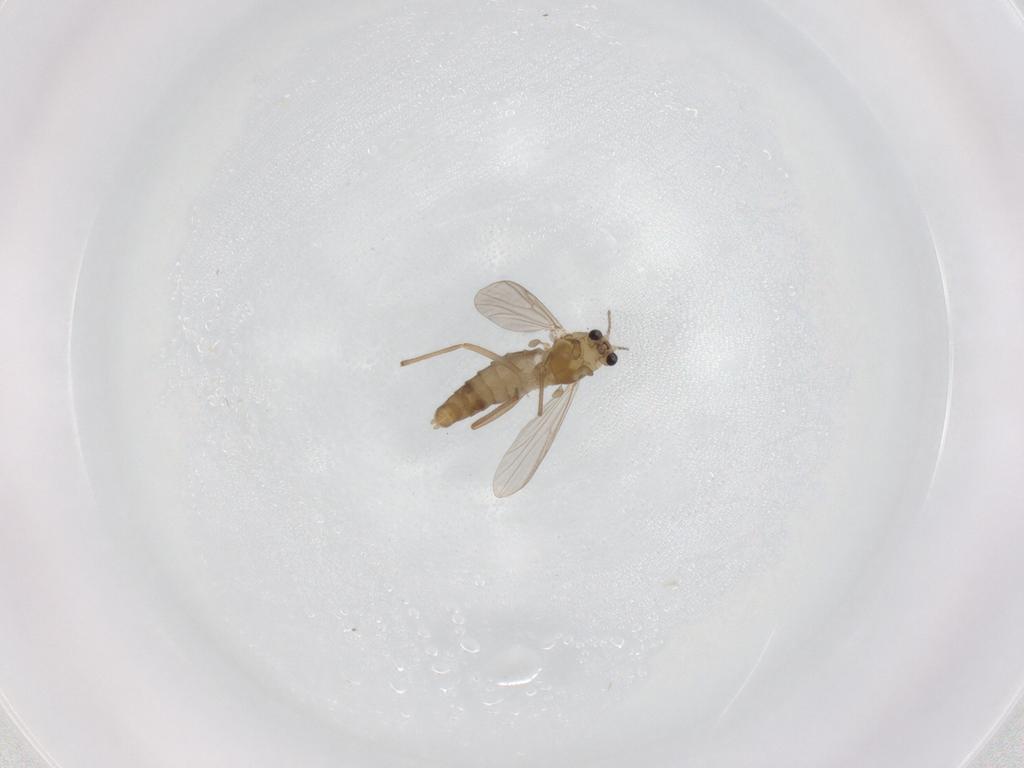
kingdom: Animalia
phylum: Arthropoda
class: Insecta
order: Diptera
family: Chironomidae
